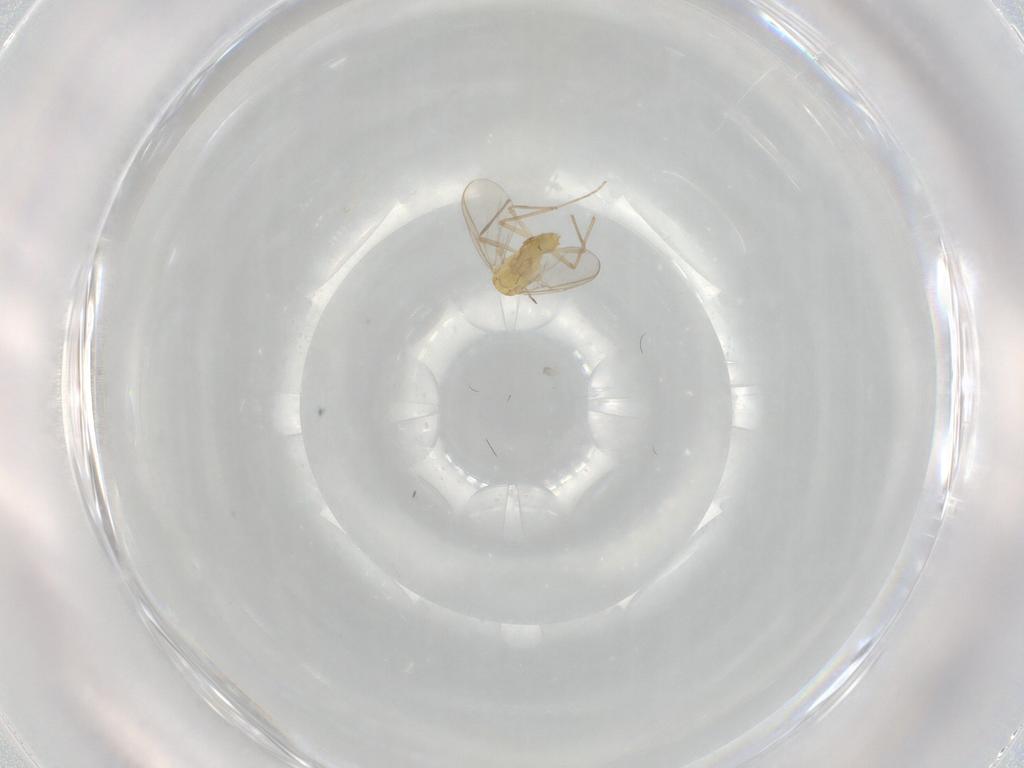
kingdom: Animalia
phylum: Arthropoda
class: Insecta
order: Diptera
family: Chironomidae
